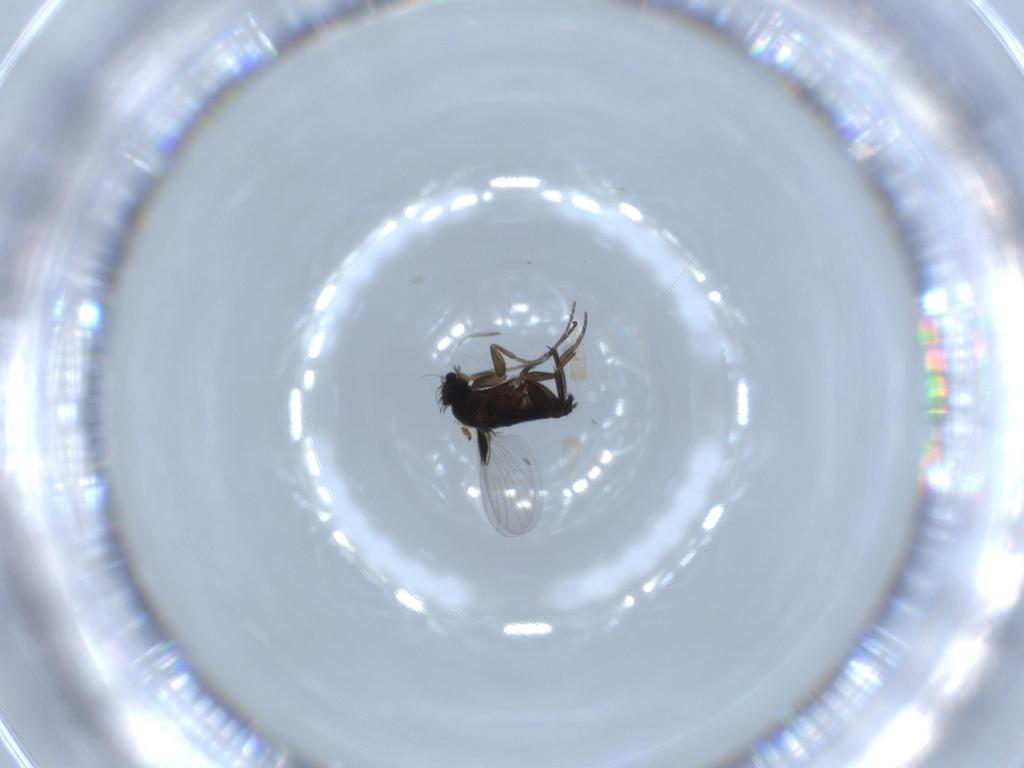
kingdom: Animalia
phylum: Arthropoda
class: Insecta
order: Diptera
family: Phoridae
